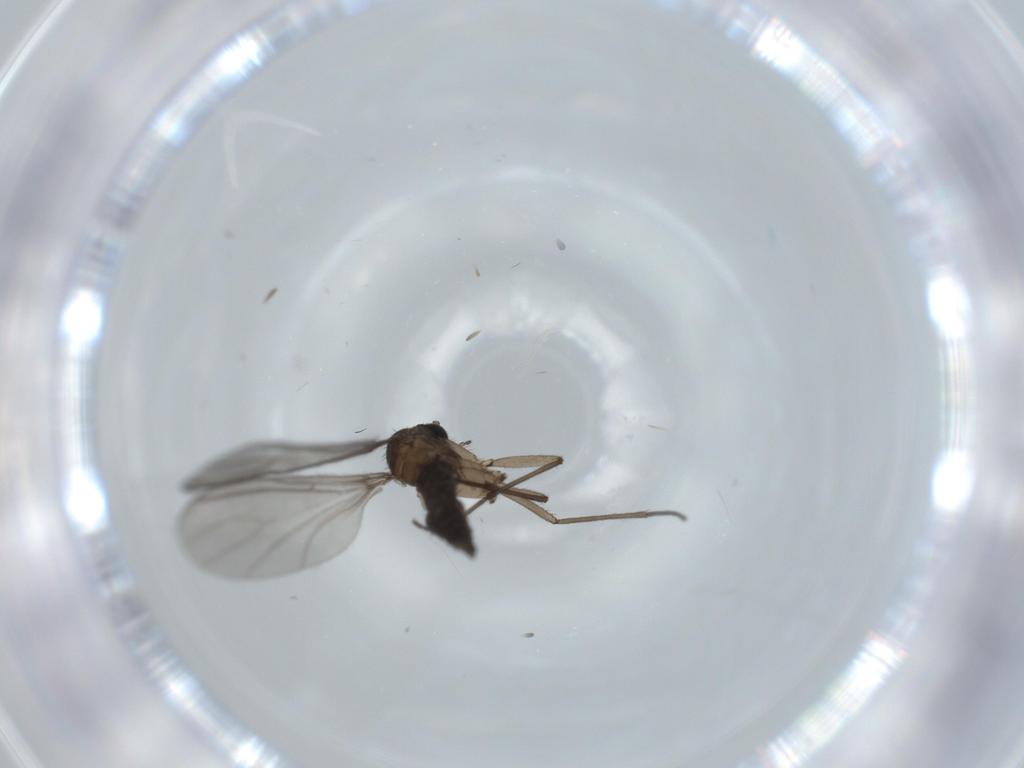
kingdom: Animalia
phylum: Arthropoda
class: Insecta
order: Diptera
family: Sciaridae
